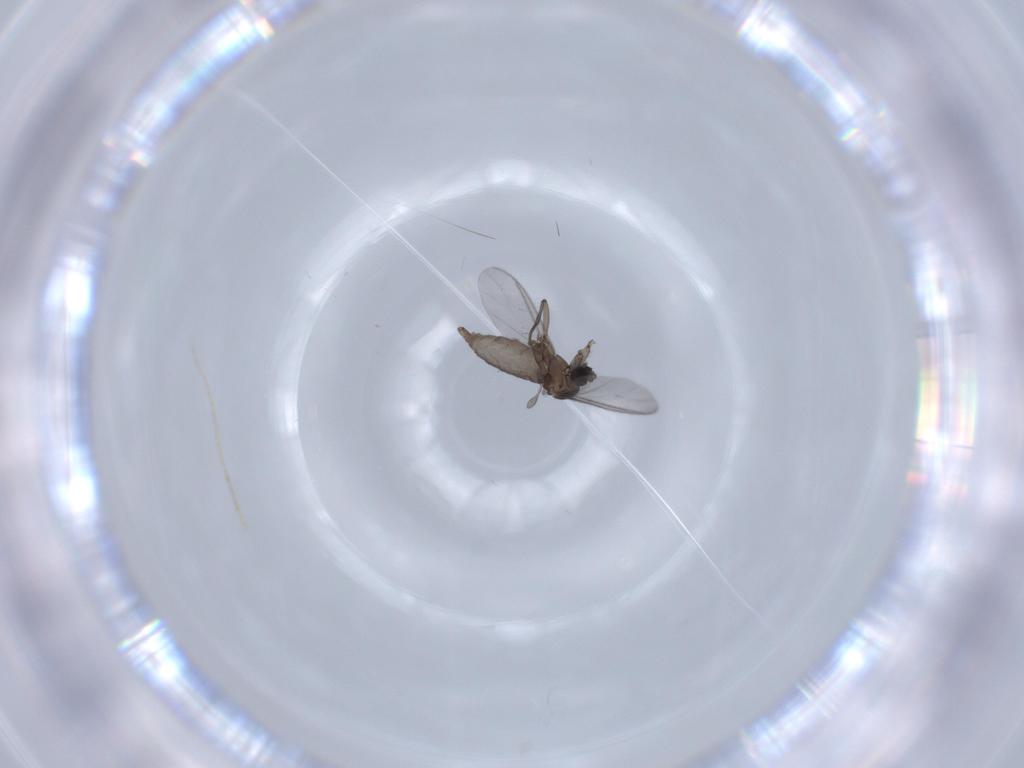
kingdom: Animalia
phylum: Arthropoda
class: Insecta
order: Diptera
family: Sciaridae
